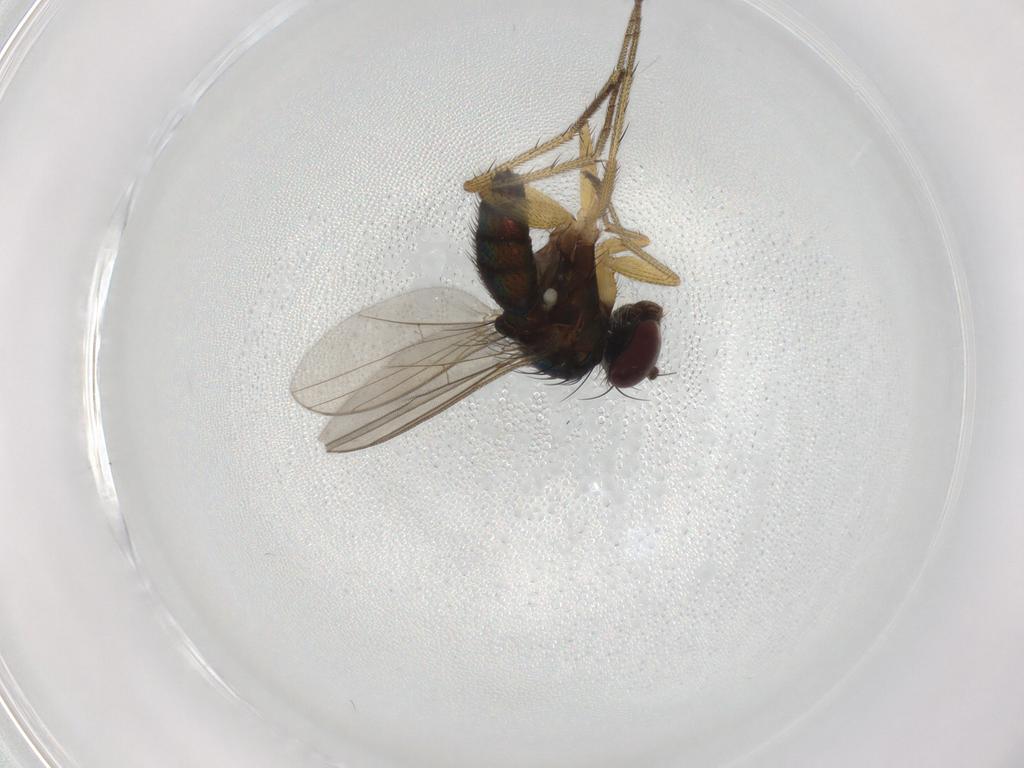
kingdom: Animalia
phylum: Arthropoda
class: Insecta
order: Diptera
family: Dolichopodidae
